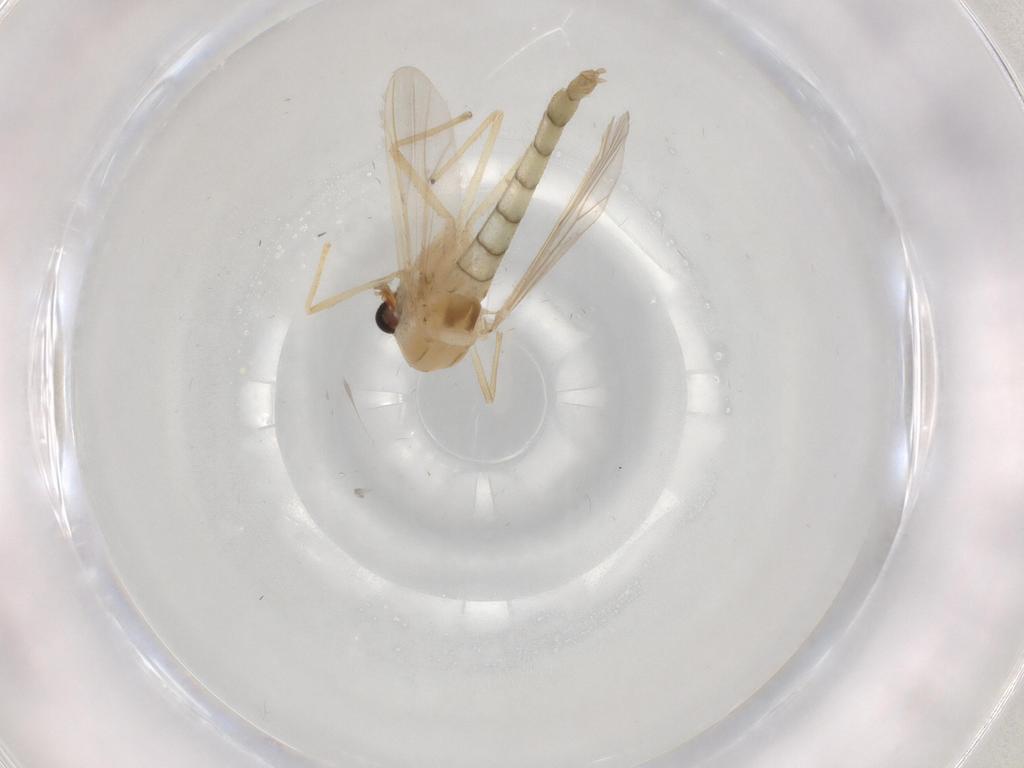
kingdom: Animalia
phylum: Arthropoda
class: Insecta
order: Diptera
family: Chironomidae
